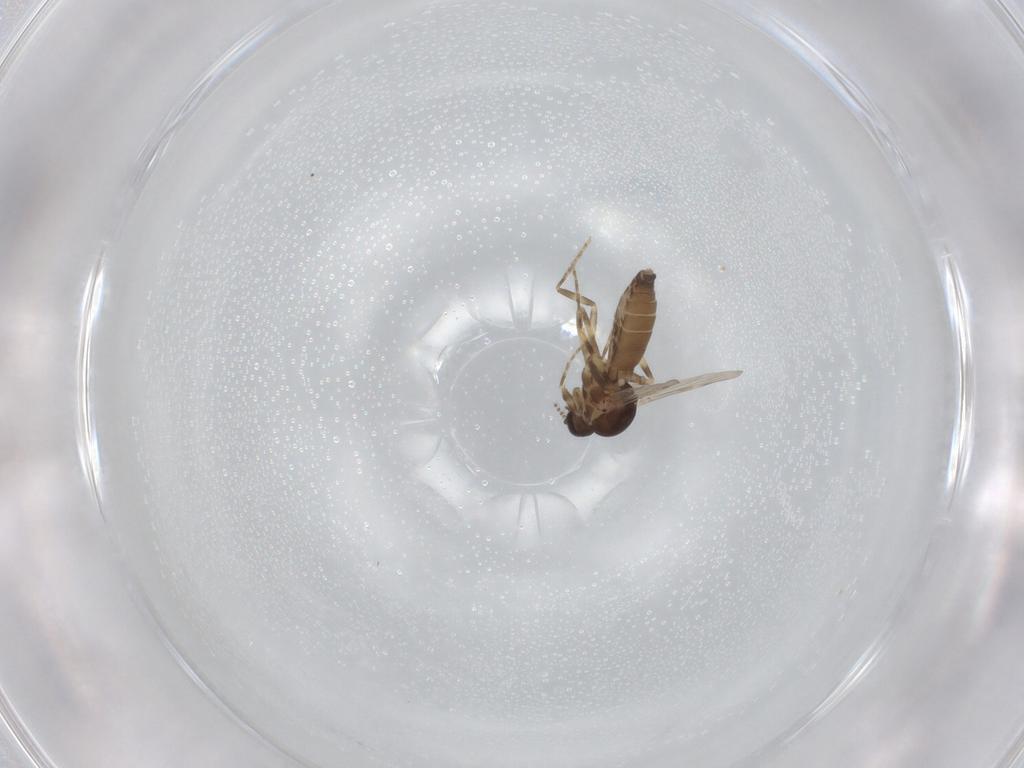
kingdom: Animalia
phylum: Arthropoda
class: Insecta
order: Diptera
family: Ceratopogonidae
